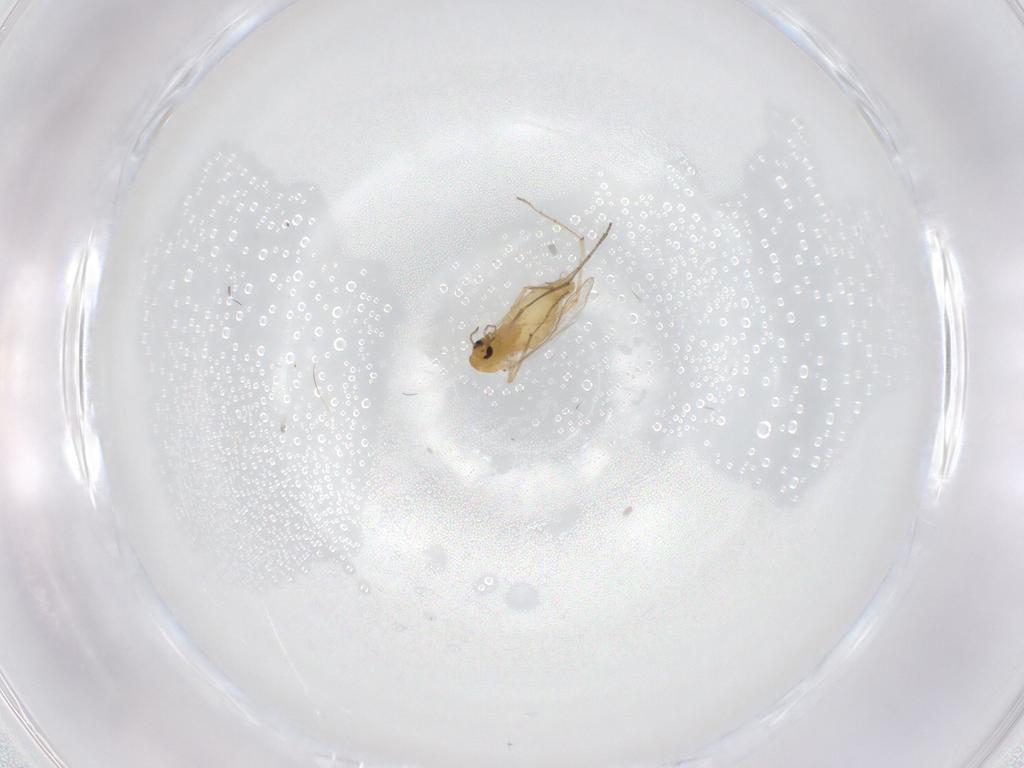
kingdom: Animalia
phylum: Arthropoda
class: Insecta
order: Diptera
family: Chironomidae
